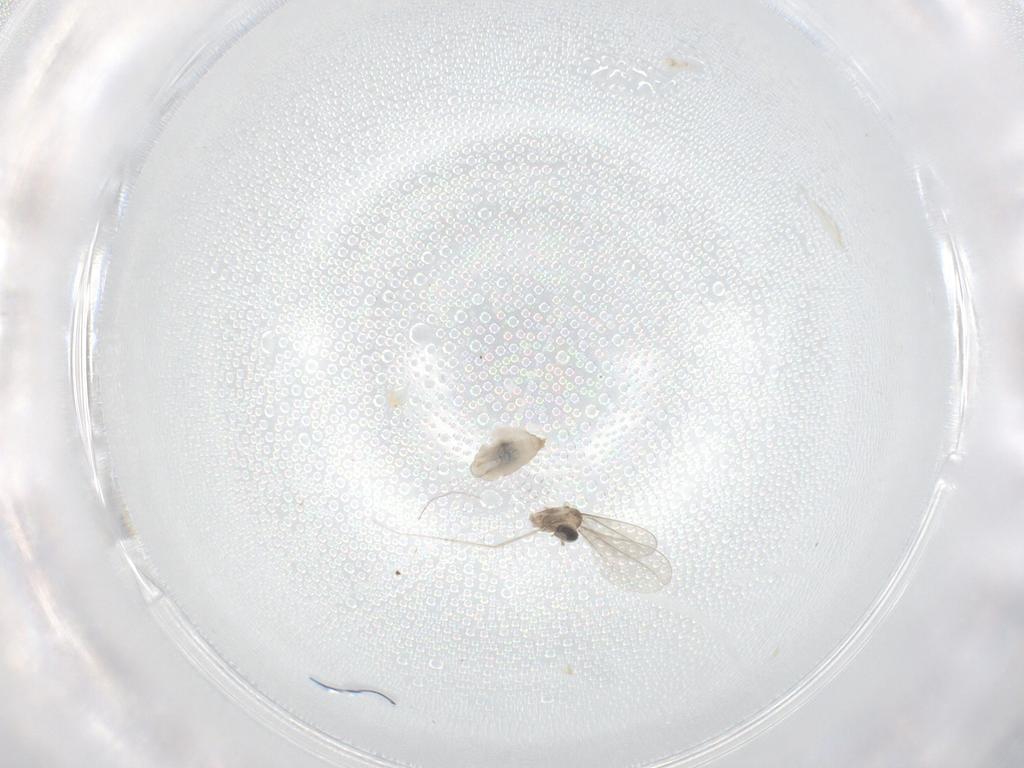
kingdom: Animalia
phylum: Arthropoda
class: Insecta
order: Diptera
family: Cecidomyiidae
